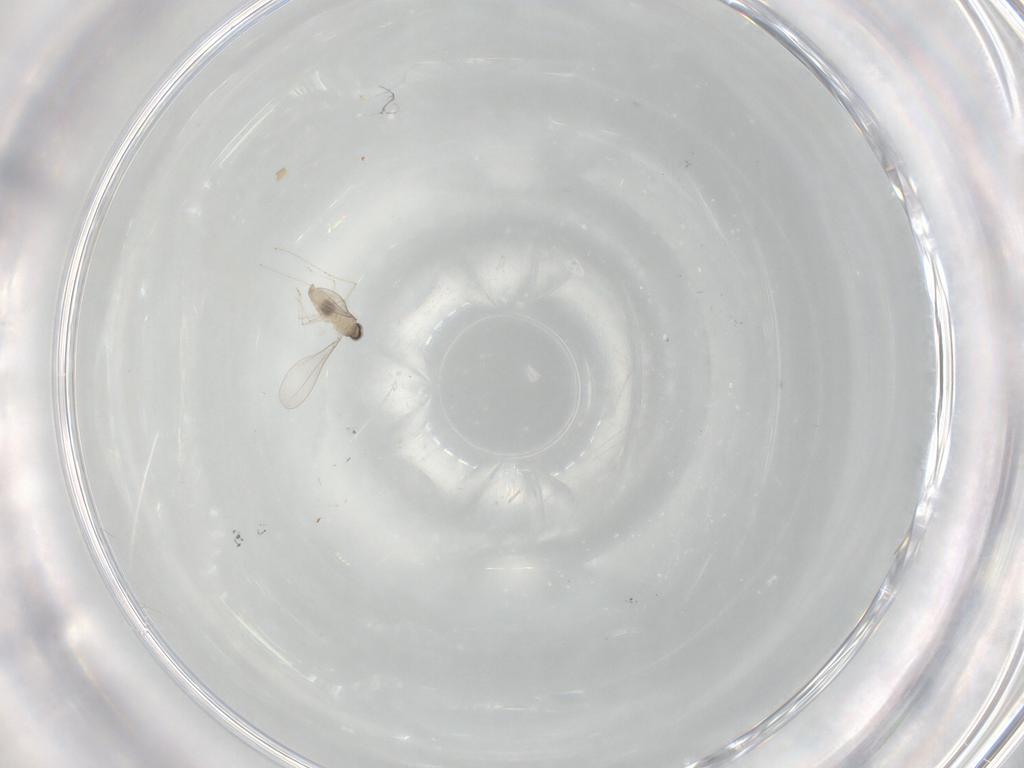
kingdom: Animalia
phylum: Arthropoda
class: Insecta
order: Diptera
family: Cecidomyiidae
